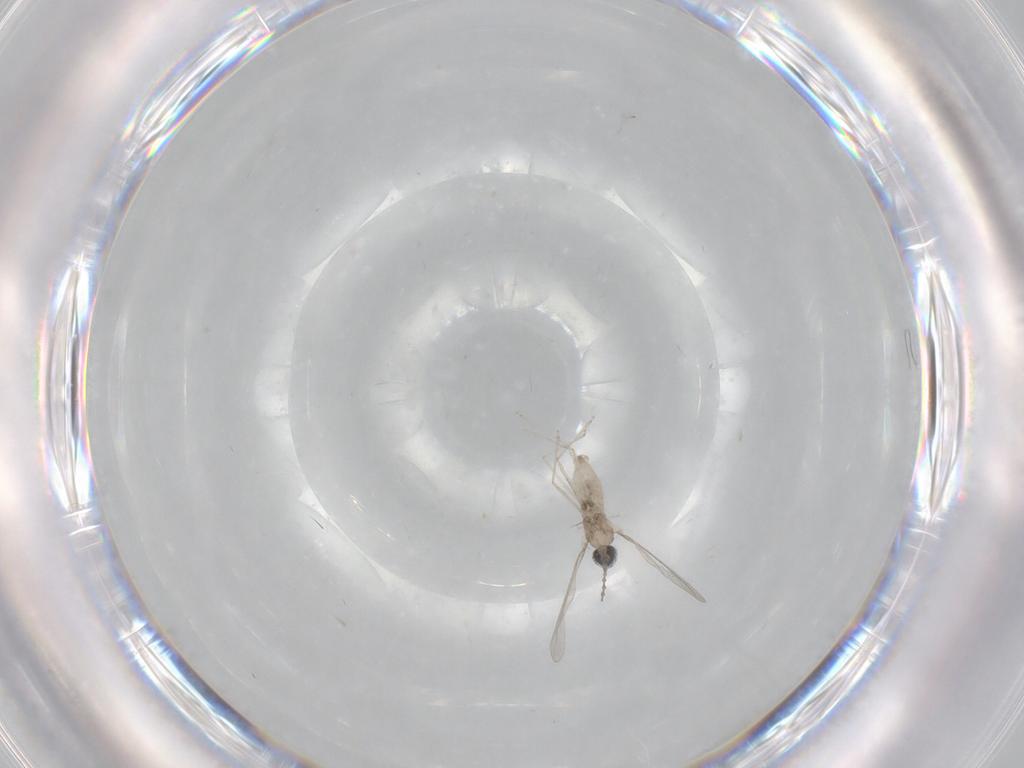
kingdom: Animalia
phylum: Arthropoda
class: Insecta
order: Diptera
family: Cecidomyiidae
